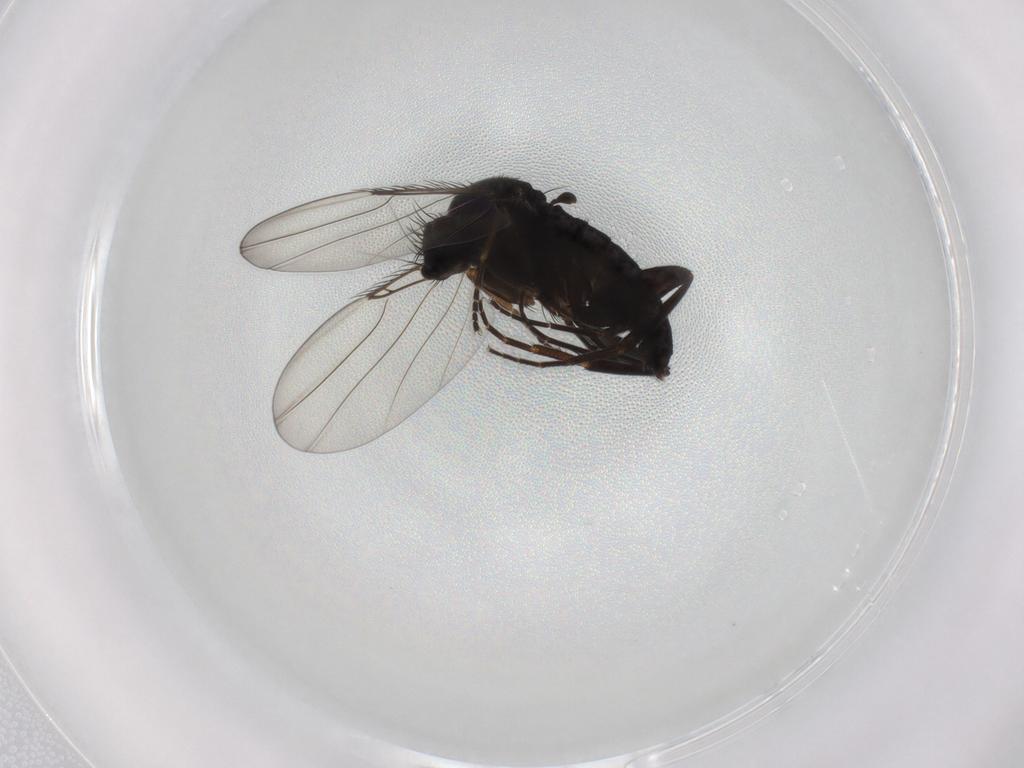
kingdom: Animalia
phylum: Arthropoda
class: Insecta
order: Diptera
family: Phoridae
